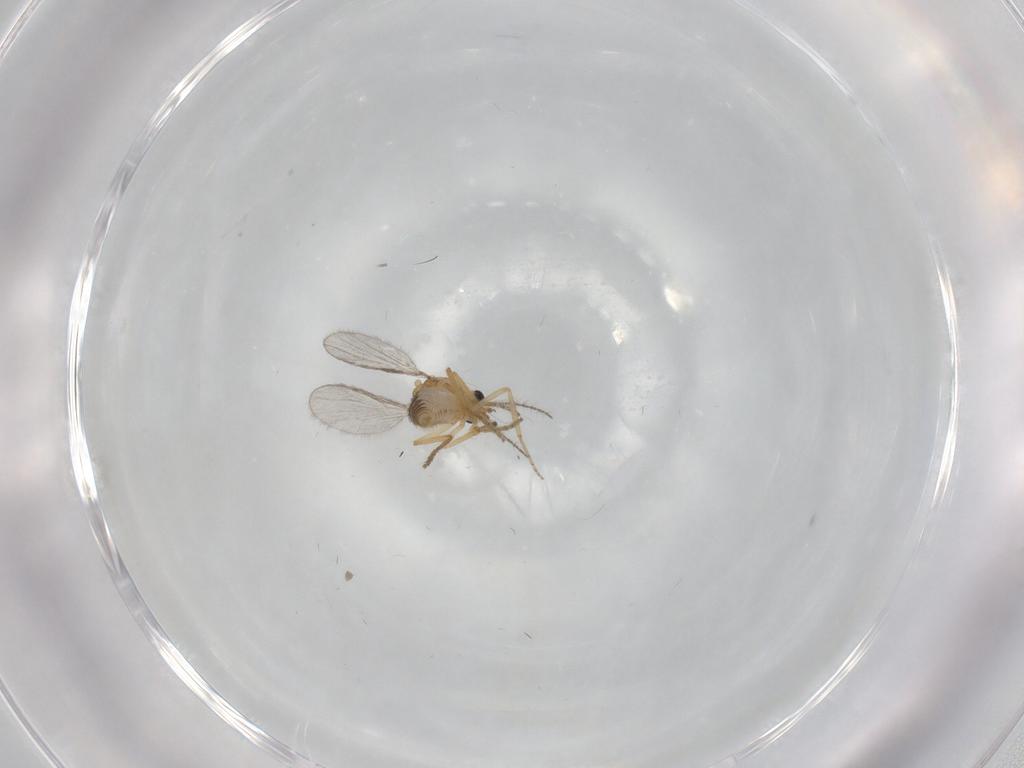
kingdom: Animalia
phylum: Arthropoda
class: Insecta
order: Diptera
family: Ceratopogonidae
